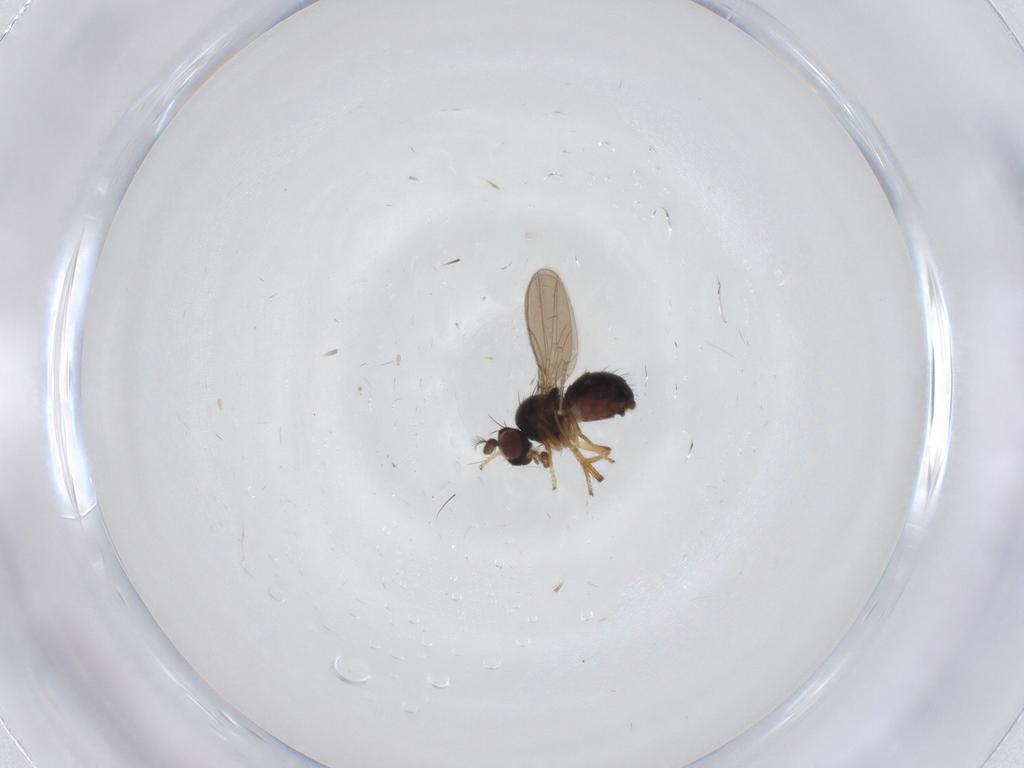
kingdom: Animalia
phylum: Arthropoda
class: Insecta
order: Diptera
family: Ephydridae
